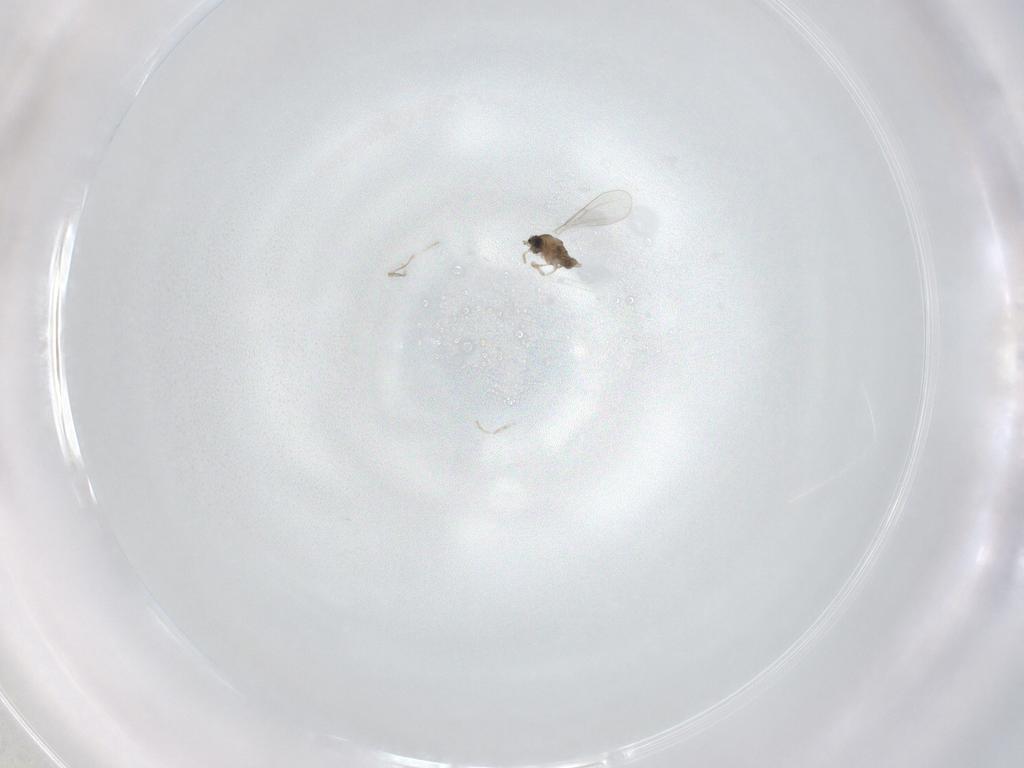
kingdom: Animalia
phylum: Arthropoda
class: Insecta
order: Diptera
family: Cecidomyiidae
